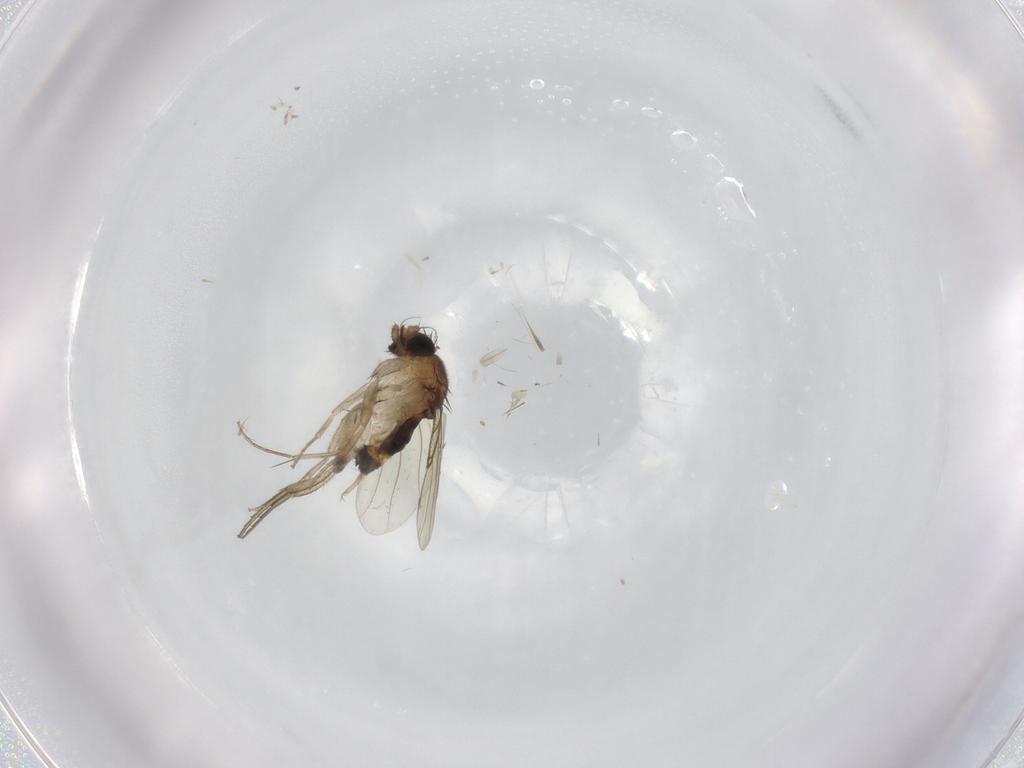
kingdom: Animalia
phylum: Arthropoda
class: Insecta
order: Diptera
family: Phoridae
